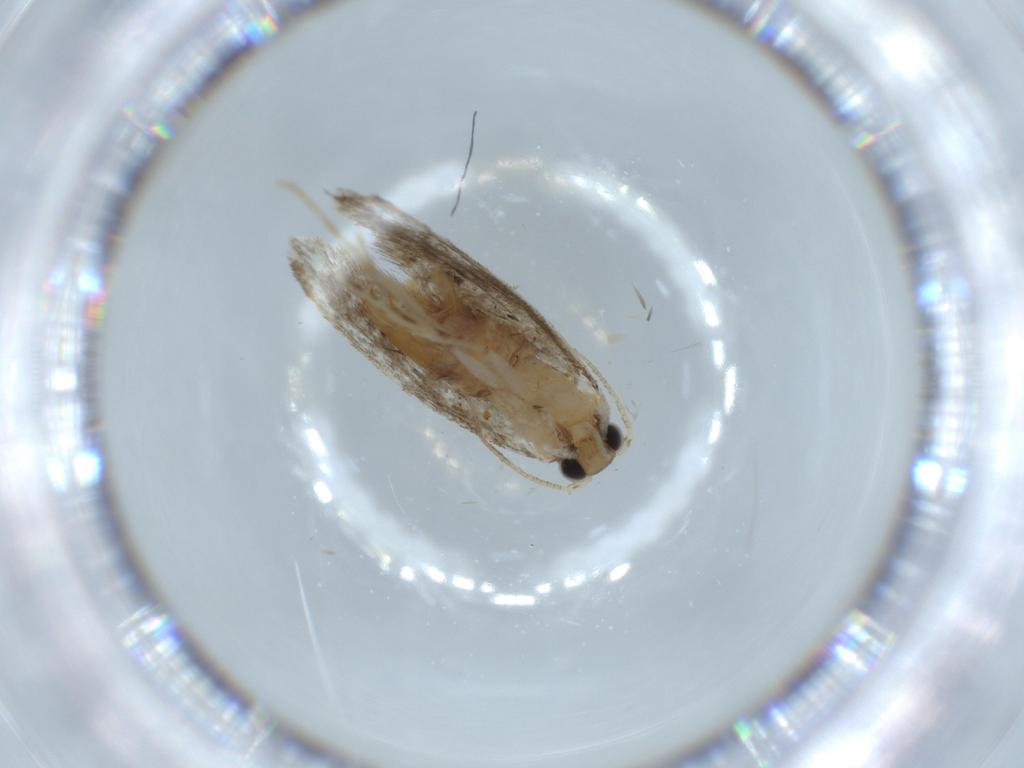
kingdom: Animalia
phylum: Arthropoda
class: Insecta
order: Lepidoptera
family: Tineidae
